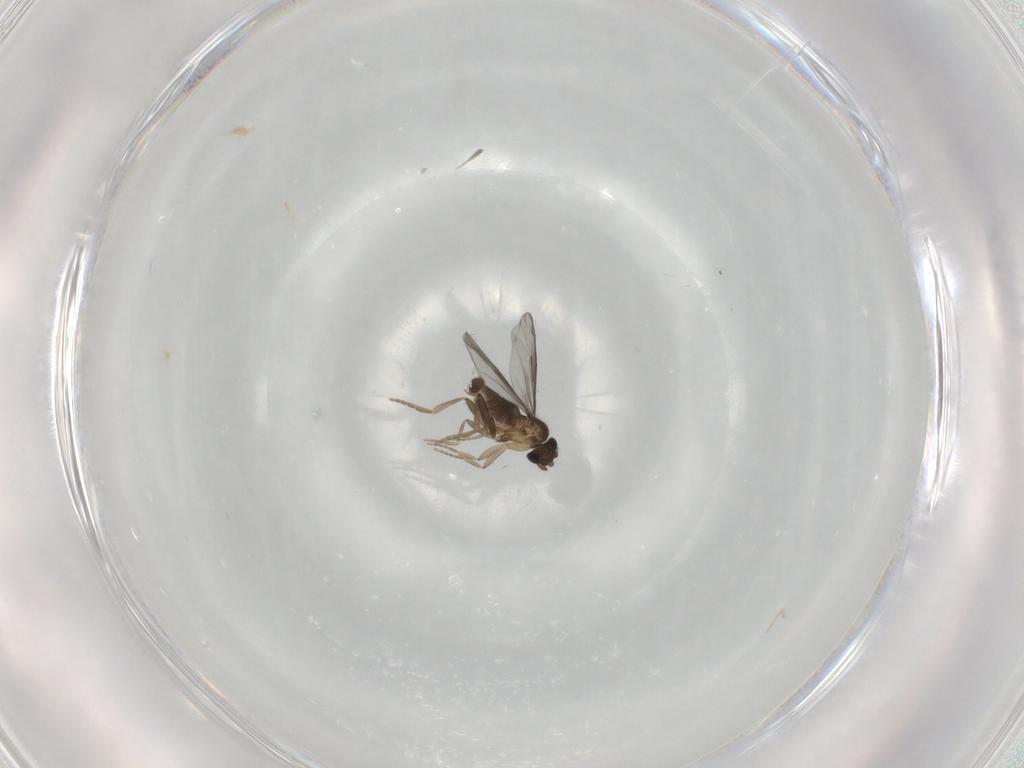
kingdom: Animalia
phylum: Arthropoda
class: Insecta
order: Diptera
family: Sciaridae
